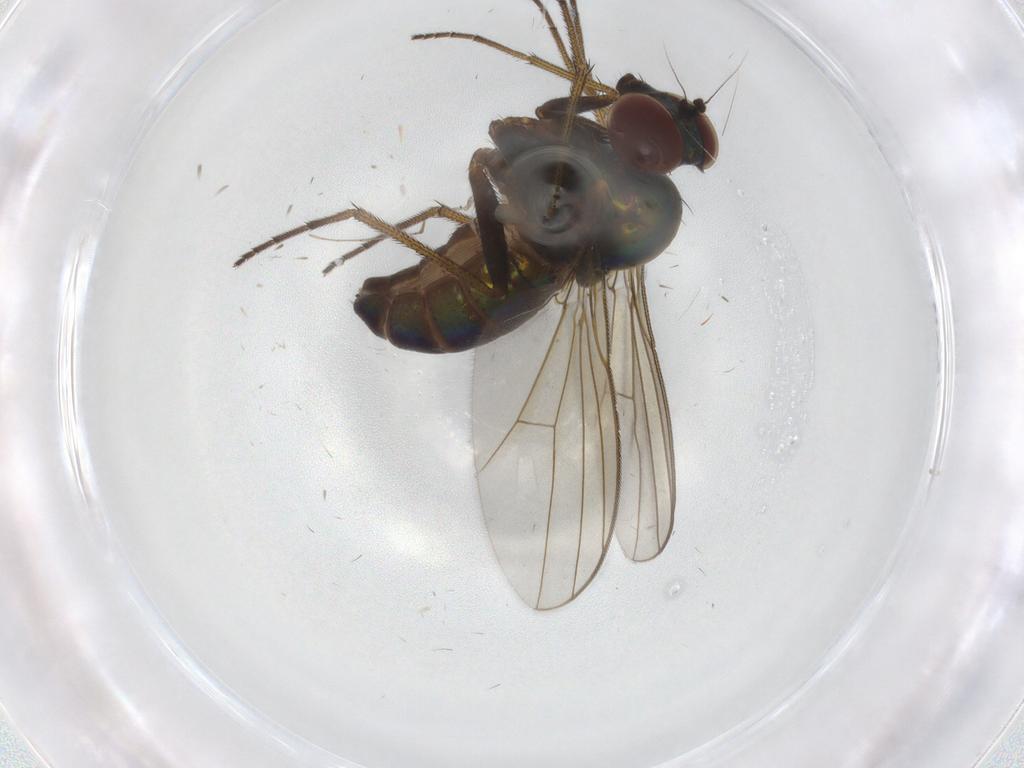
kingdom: Animalia
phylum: Arthropoda
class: Insecta
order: Diptera
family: Dolichopodidae
